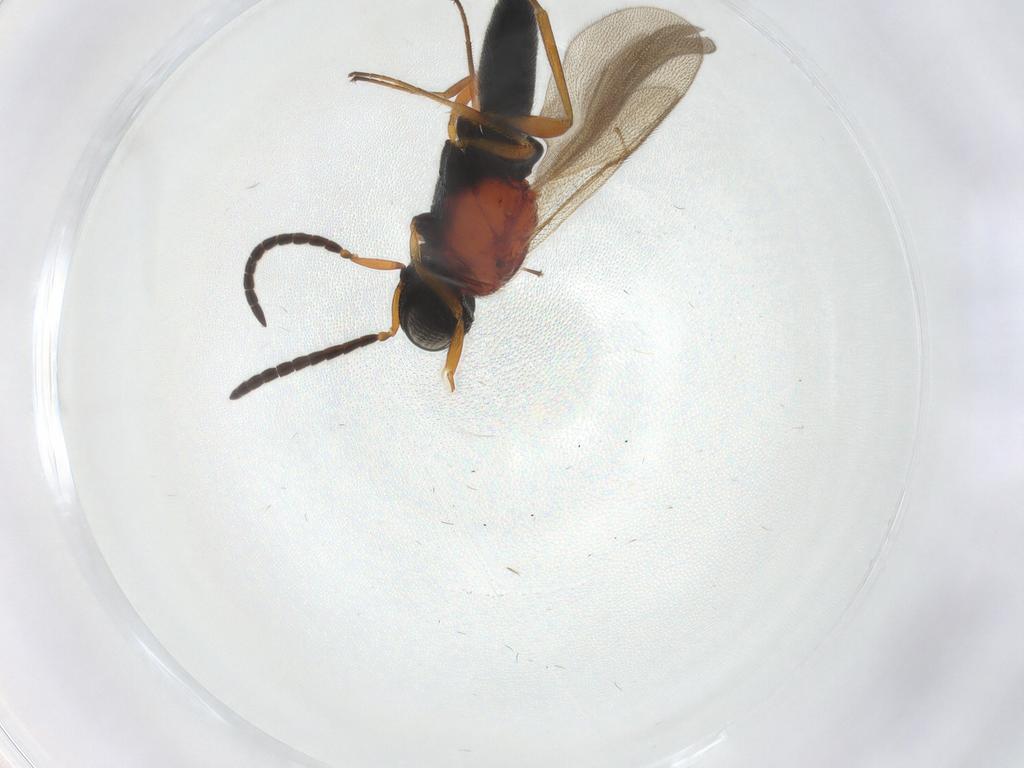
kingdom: Animalia
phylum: Arthropoda
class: Insecta
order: Hymenoptera
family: Scelionidae
